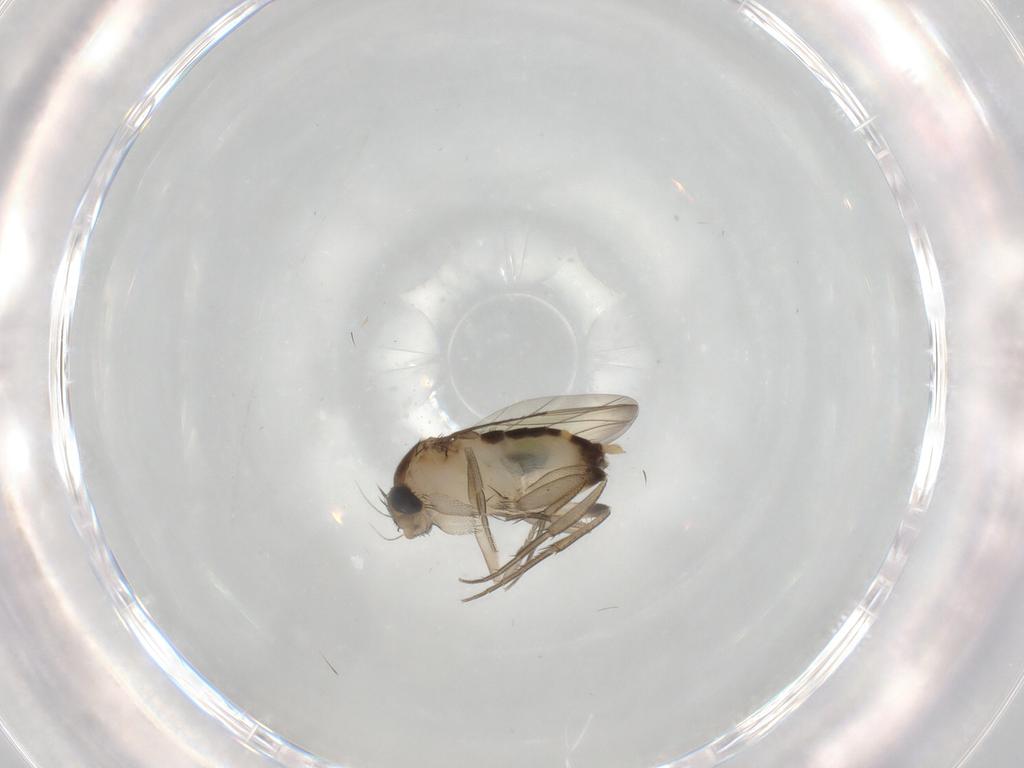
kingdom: Animalia
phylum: Arthropoda
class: Insecta
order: Diptera
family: Phoridae
